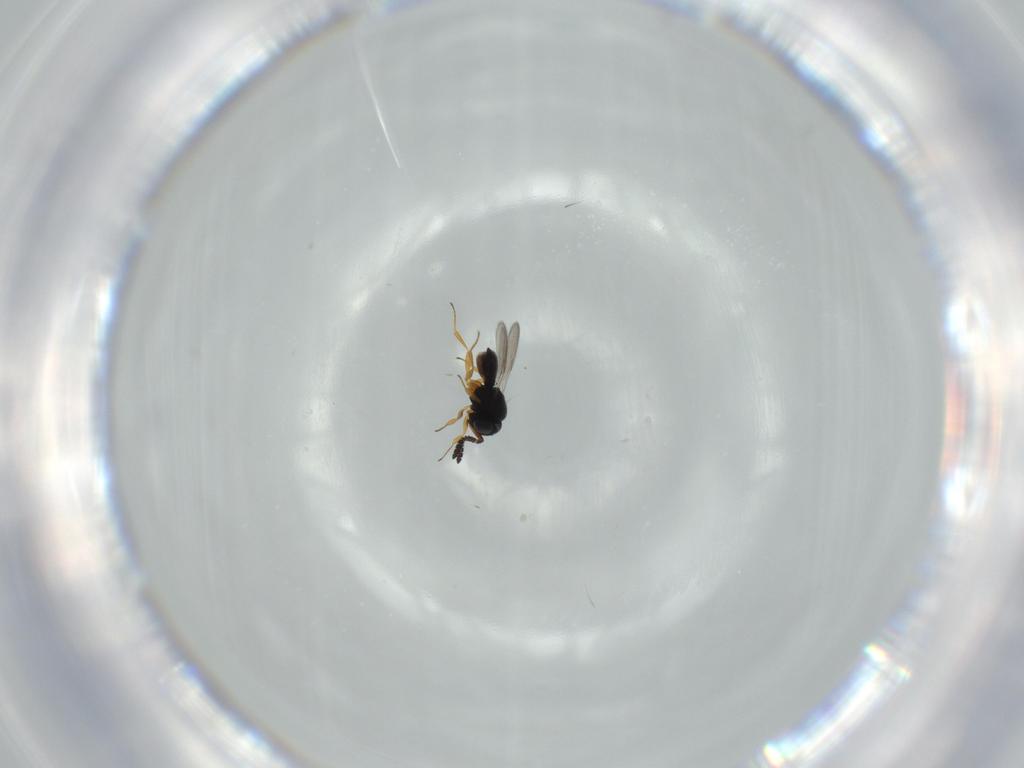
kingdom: Animalia
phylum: Arthropoda
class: Insecta
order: Hymenoptera
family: Scelionidae
